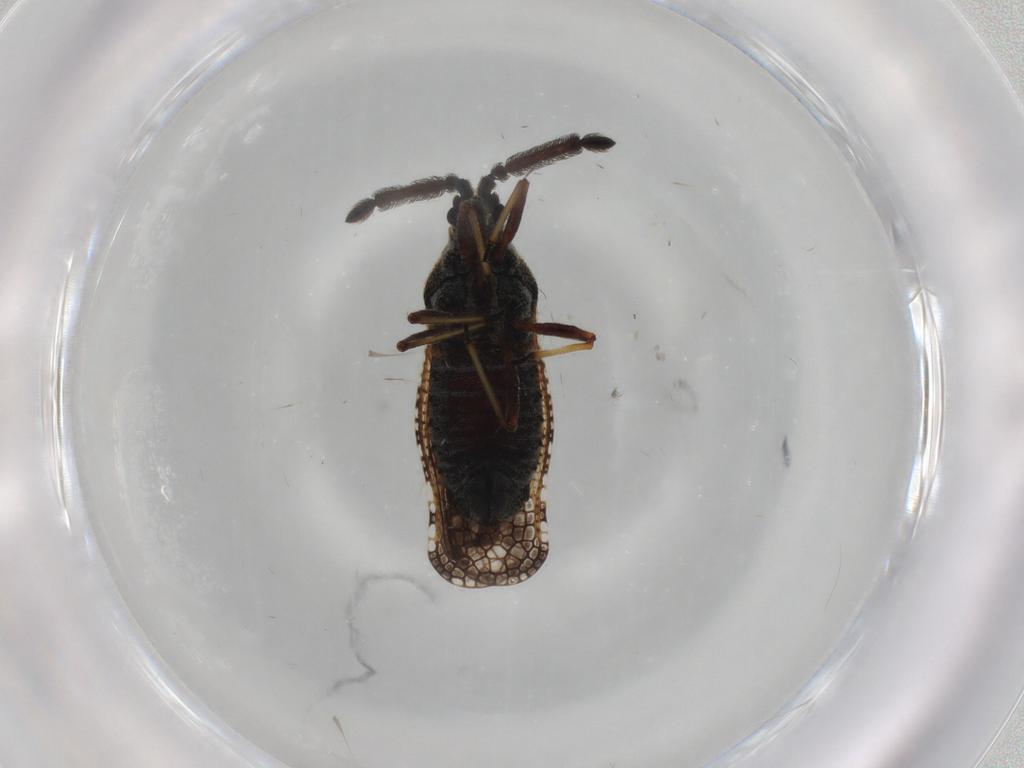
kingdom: Animalia
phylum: Arthropoda
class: Insecta
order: Hemiptera
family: Tingidae
